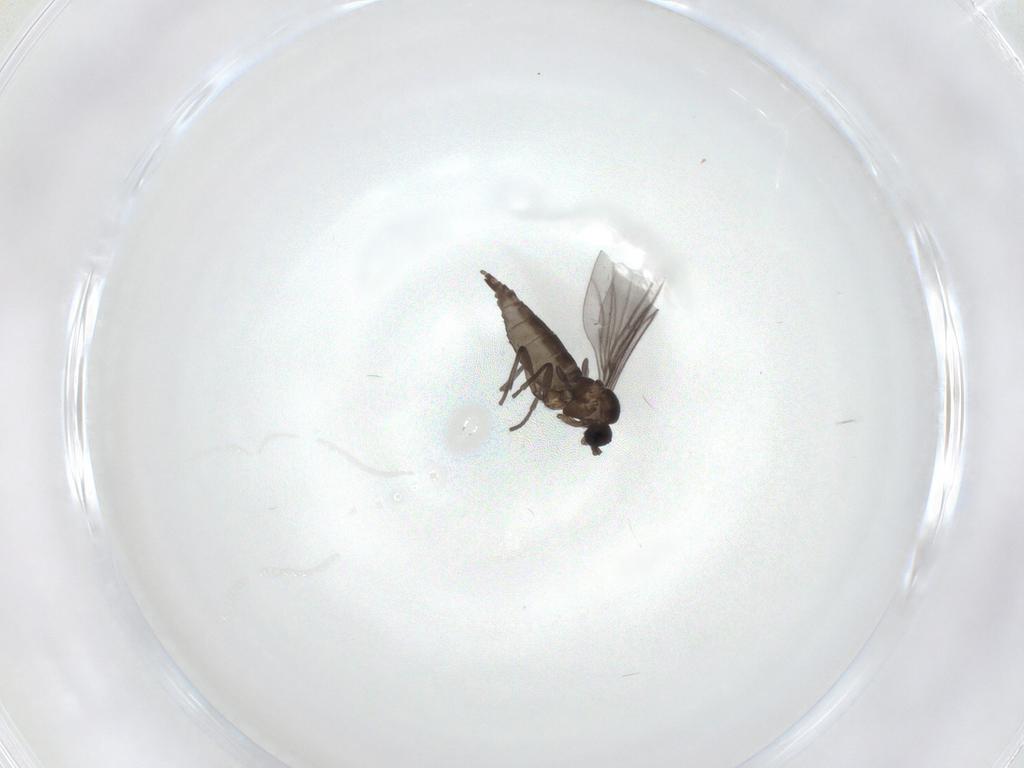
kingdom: Animalia
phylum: Arthropoda
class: Insecta
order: Diptera
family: Sciaridae
